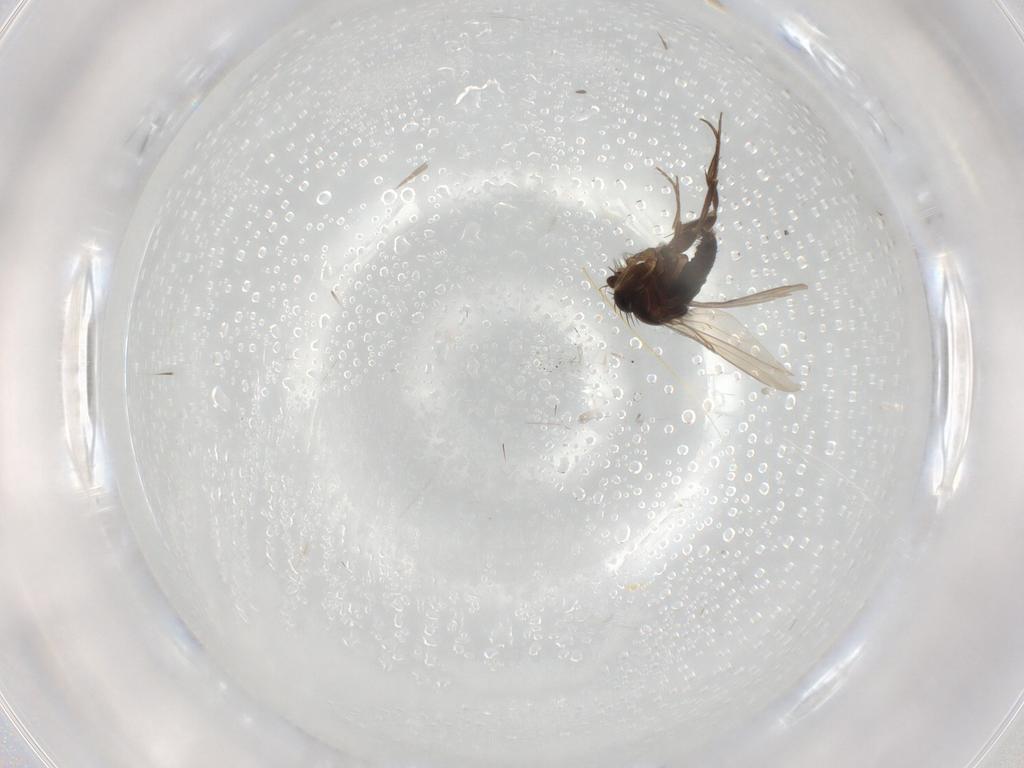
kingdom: Animalia
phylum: Arthropoda
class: Insecta
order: Diptera
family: Phoridae
